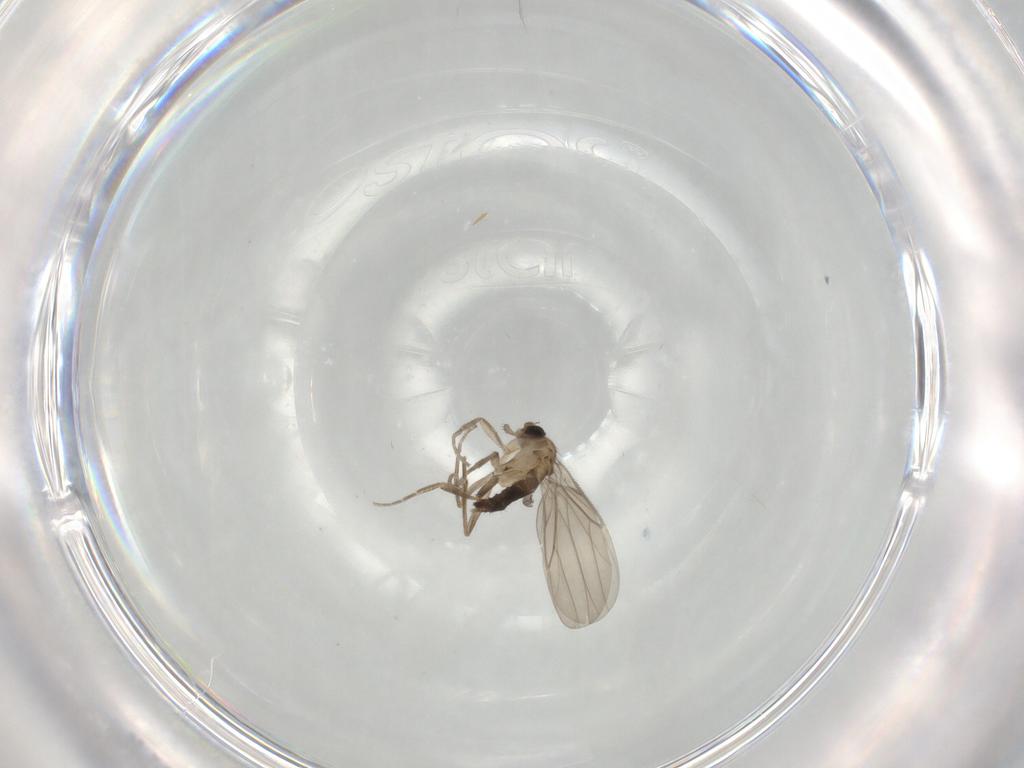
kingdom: Animalia
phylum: Arthropoda
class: Insecta
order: Diptera
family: Phoridae
